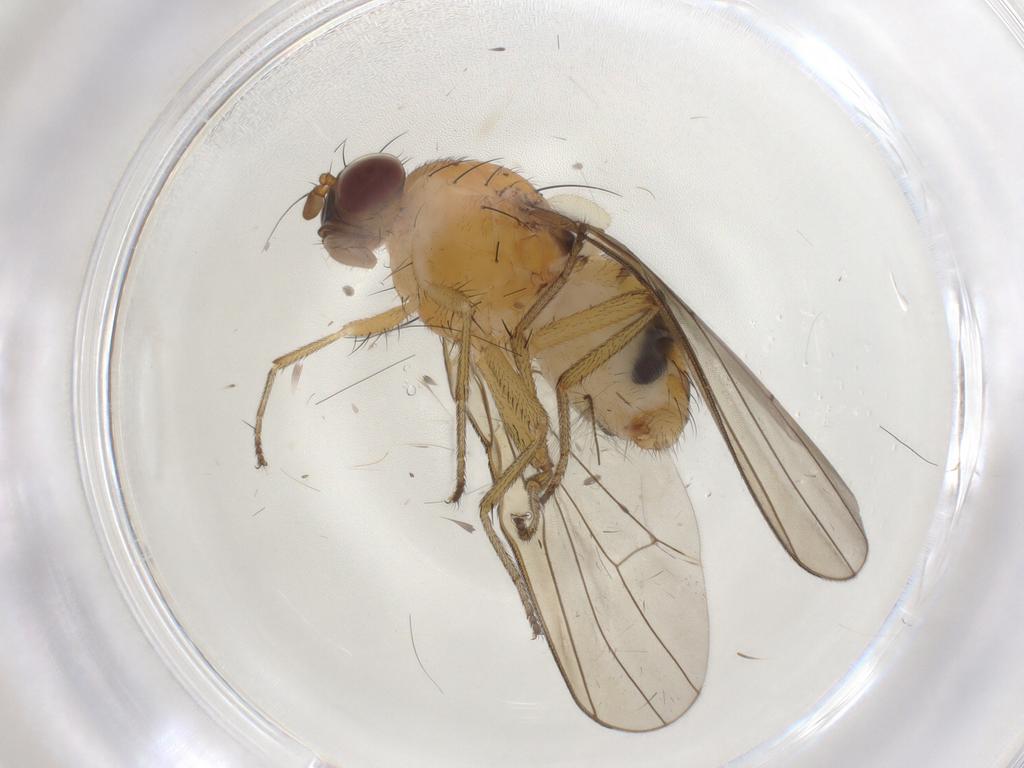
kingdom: Animalia
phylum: Arthropoda
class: Insecta
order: Diptera
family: Lauxaniidae
